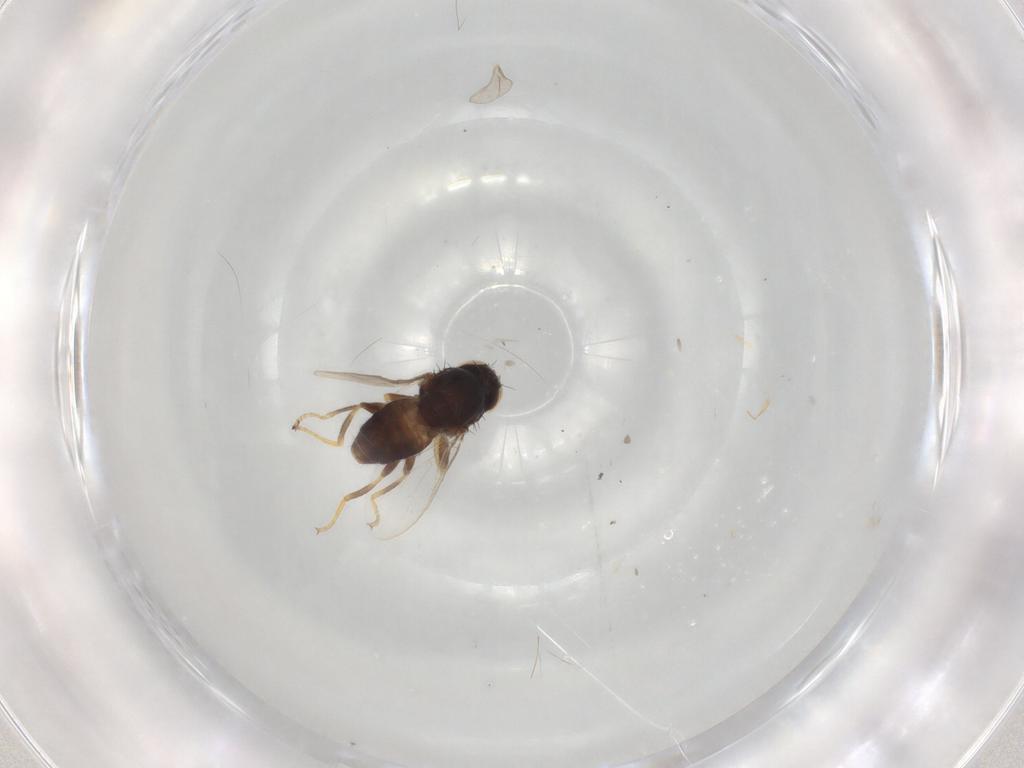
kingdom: Animalia
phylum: Arthropoda
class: Insecta
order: Diptera
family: Chloropidae
